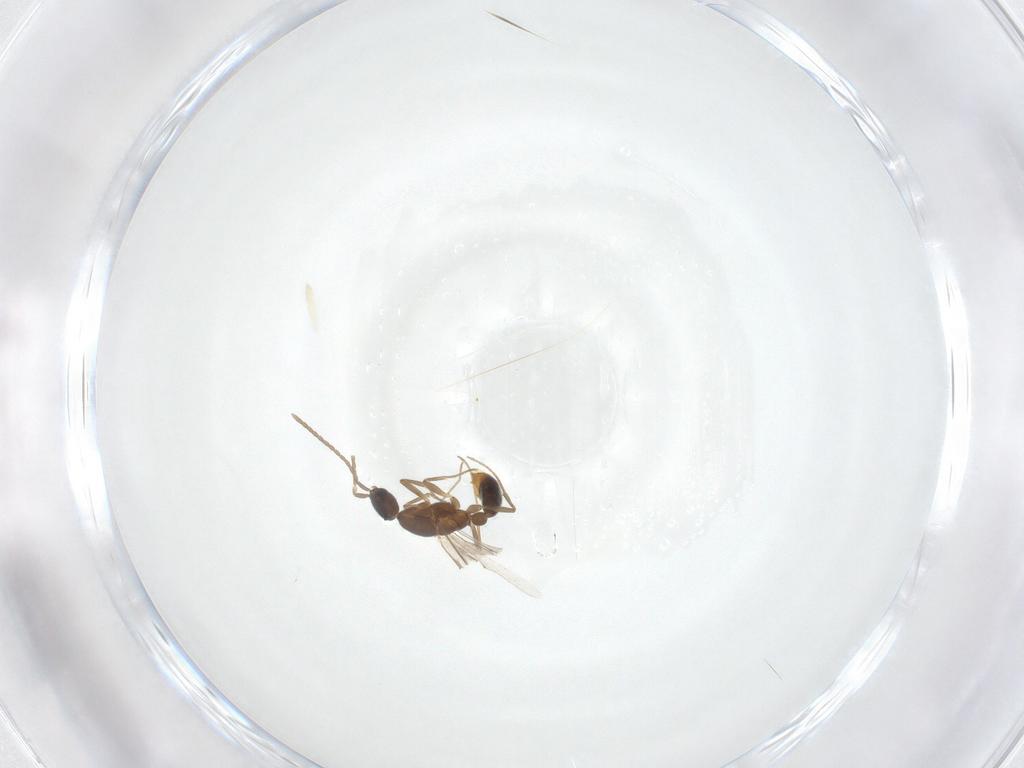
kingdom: Animalia
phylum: Arthropoda
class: Insecta
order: Hymenoptera
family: Formicidae
